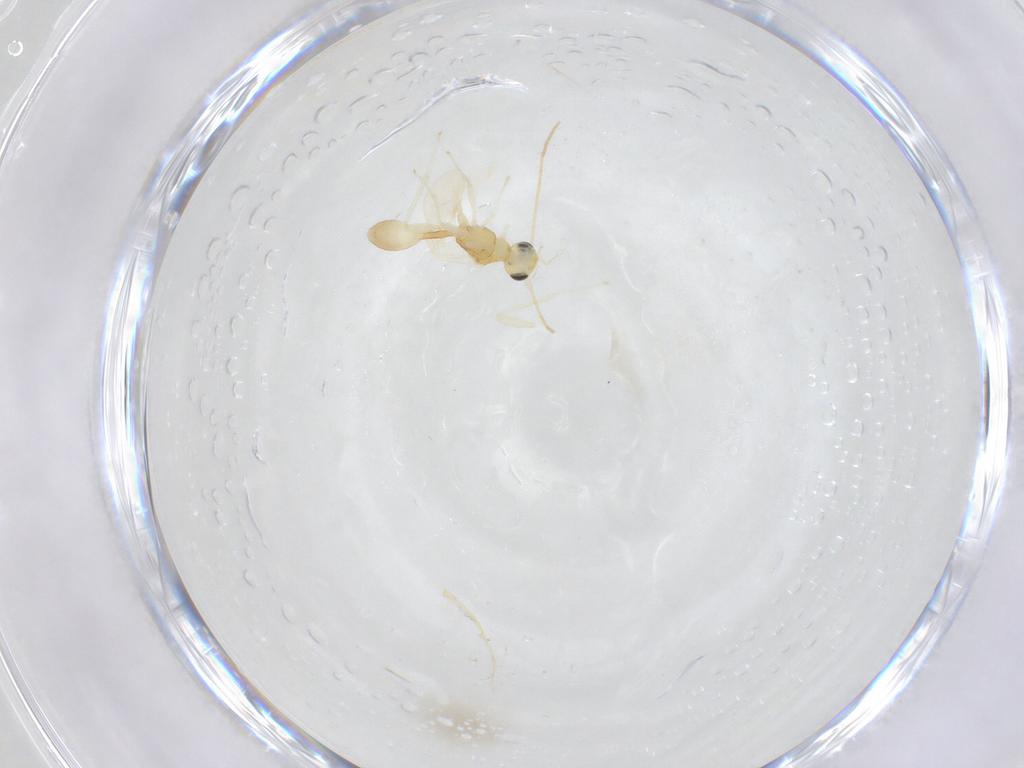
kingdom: Animalia
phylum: Arthropoda
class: Insecta
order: Hymenoptera
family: Braconidae
